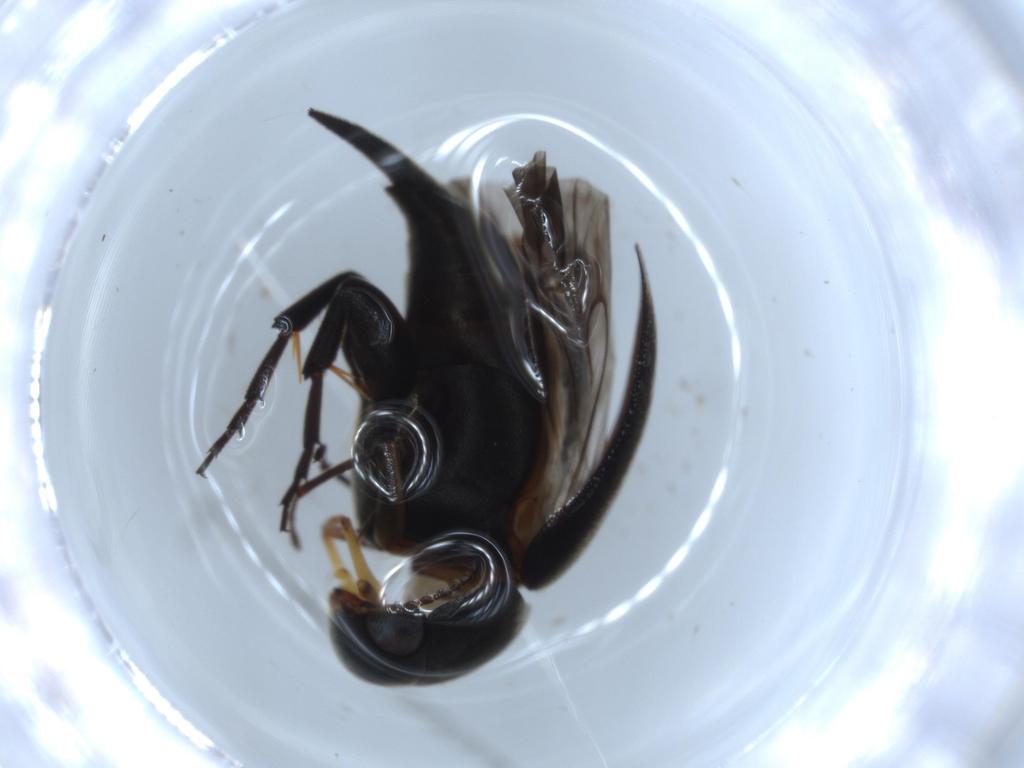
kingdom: Animalia
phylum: Arthropoda
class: Insecta
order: Coleoptera
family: Mordellidae
